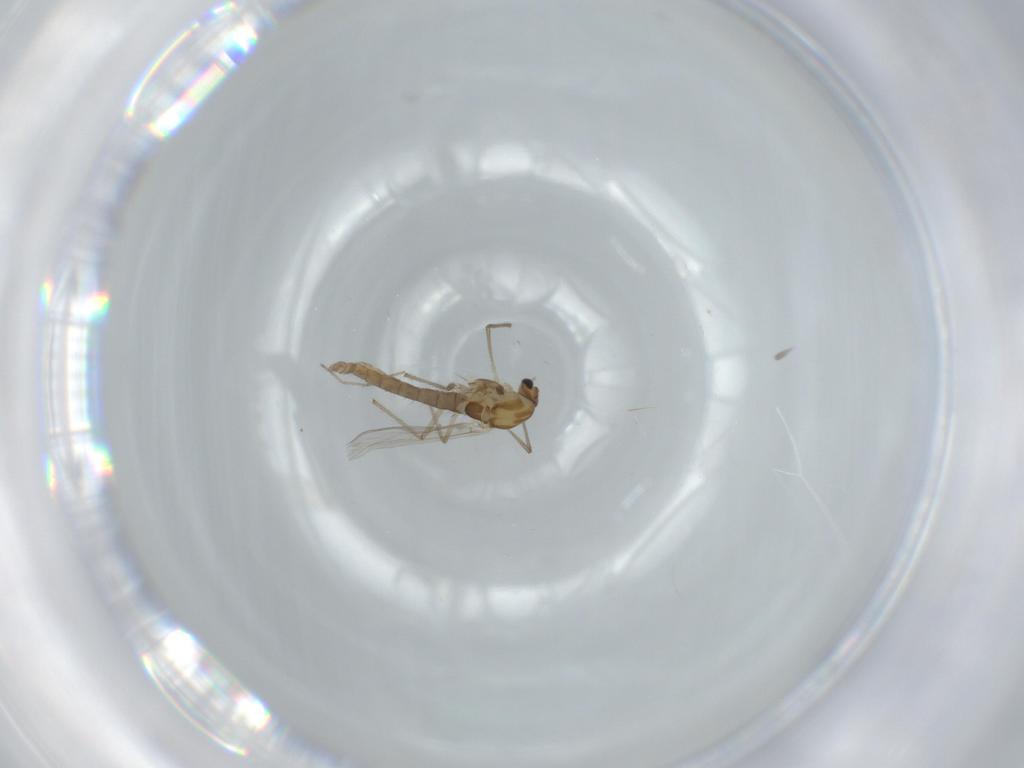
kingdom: Animalia
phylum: Arthropoda
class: Insecta
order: Diptera
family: Chironomidae
